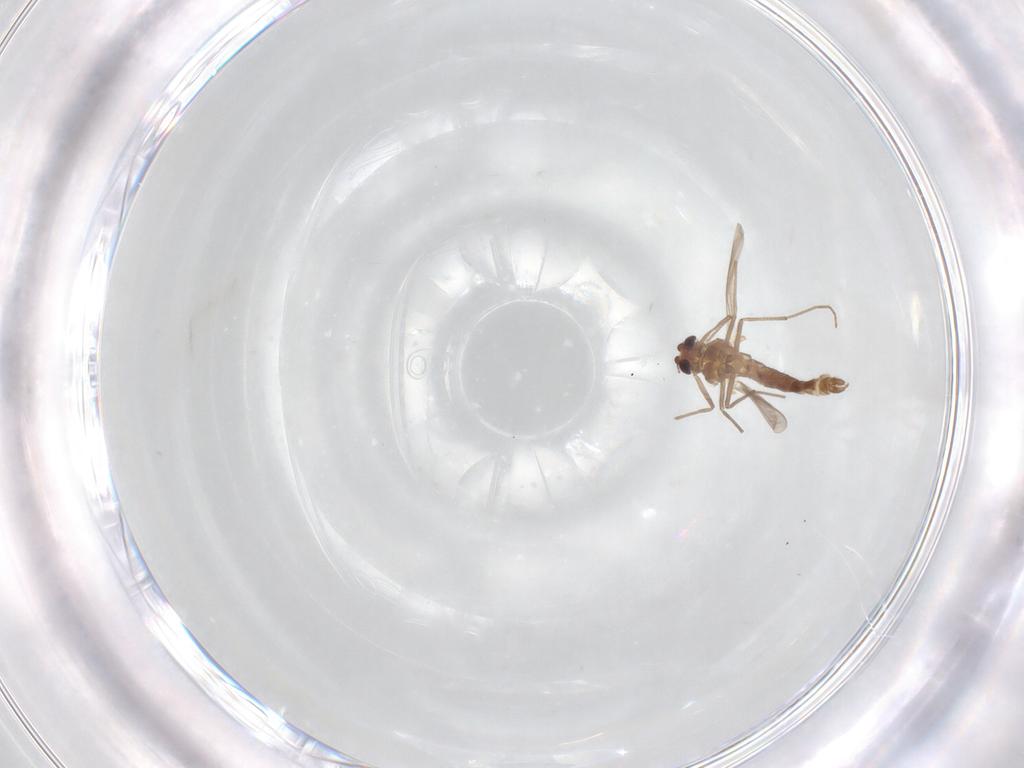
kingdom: Animalia
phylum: Arthropoda
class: Insecta
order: Diptera
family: Chironomidae
